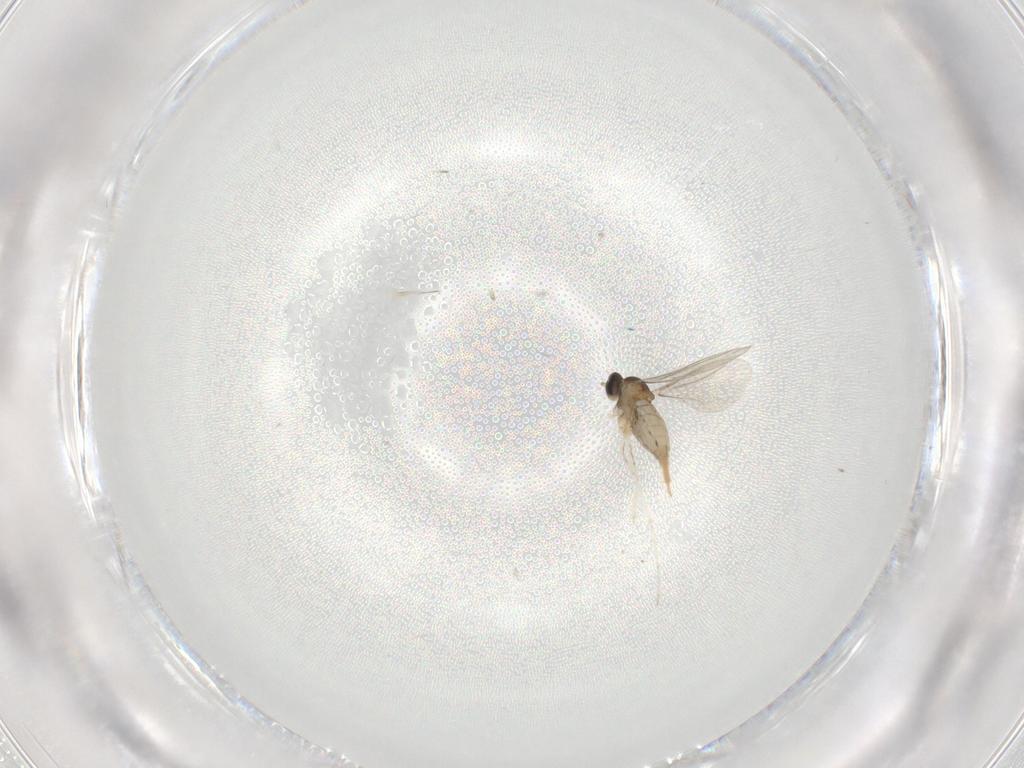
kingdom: Animalia
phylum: Arthropoda
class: Insecta
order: Diptera
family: Cecidomyiidae
